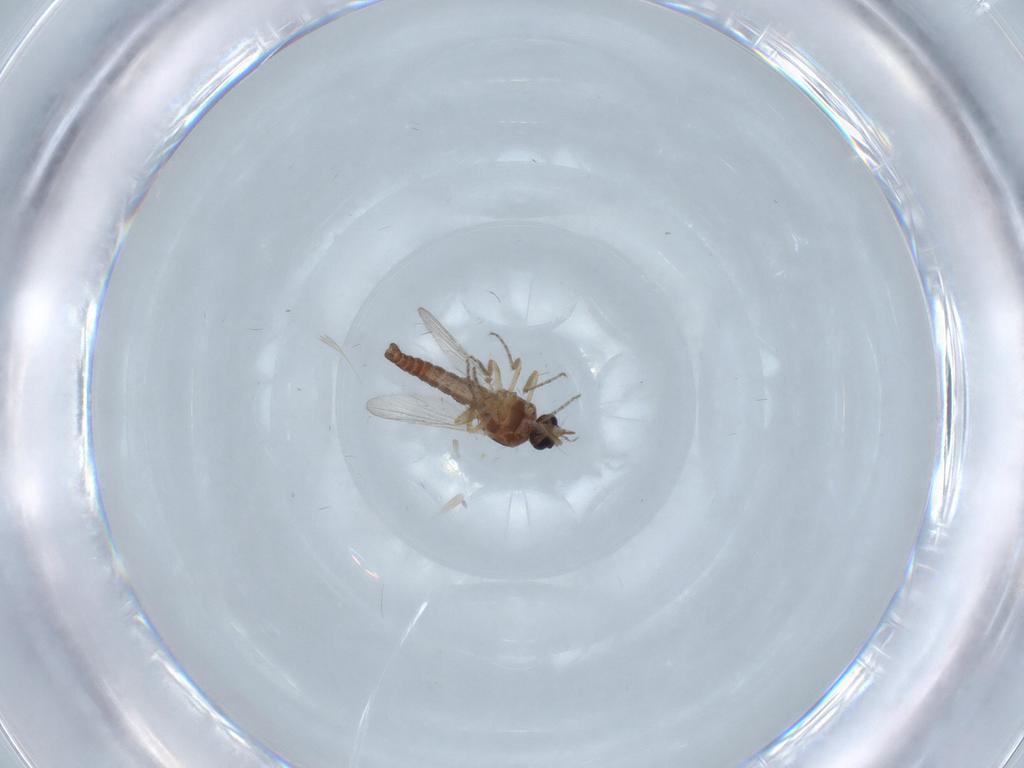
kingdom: Animalia
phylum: Arthropoda
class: Insecta
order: Diptera
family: Ceratopogonidae
